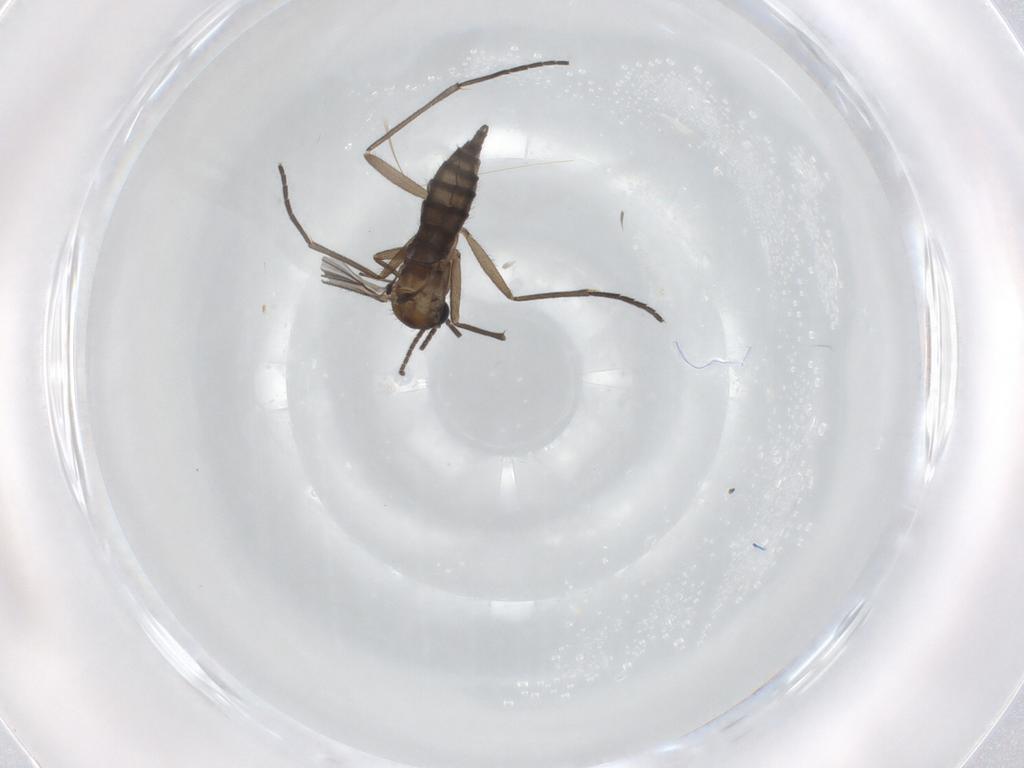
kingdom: Animalia
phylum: Arthropoda
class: Insecta
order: Diptera
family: Sciaridae
